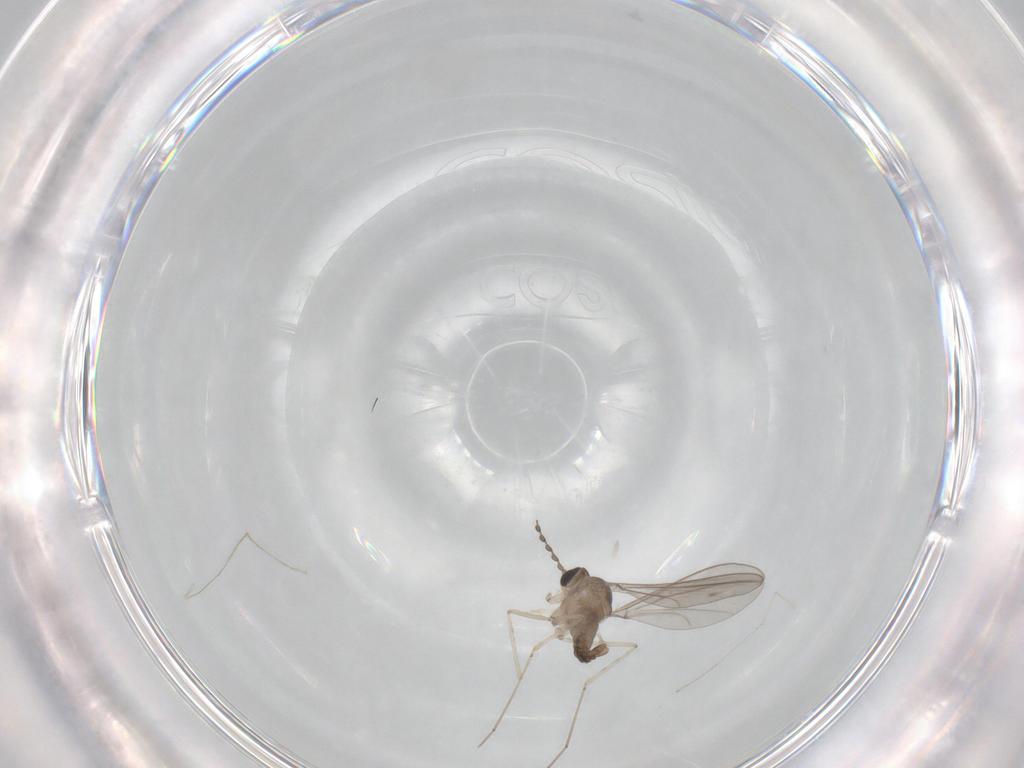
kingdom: Animalia
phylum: Arthropoda
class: Insecta
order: Diptera
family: Cecidomyiidae
